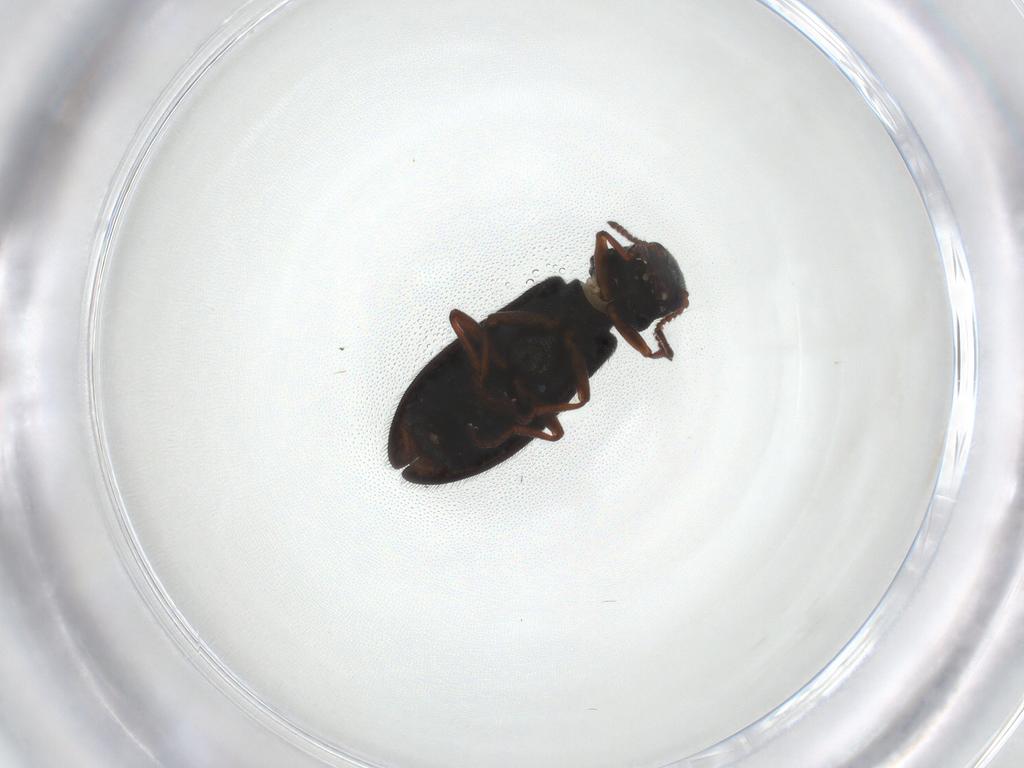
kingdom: Animalia
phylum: Arthropoda
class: Insecta
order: Coleoptera
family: Melyridae
